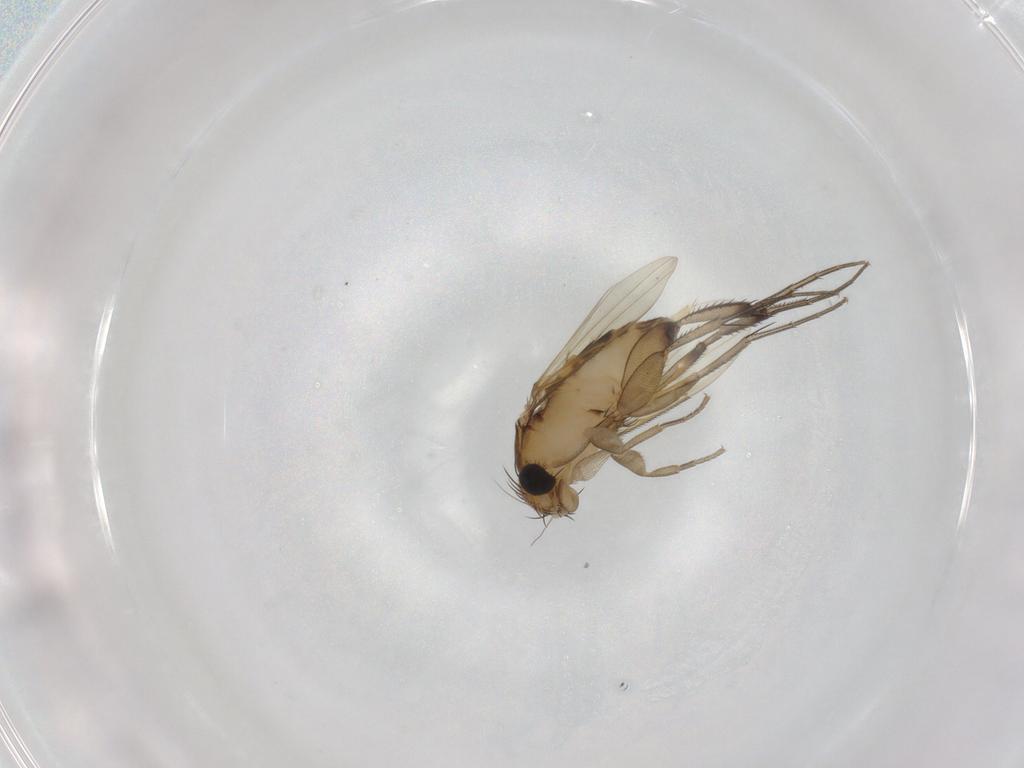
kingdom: Animalia
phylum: Arthropoda
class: Insecta
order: Diptera
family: Phoridae
